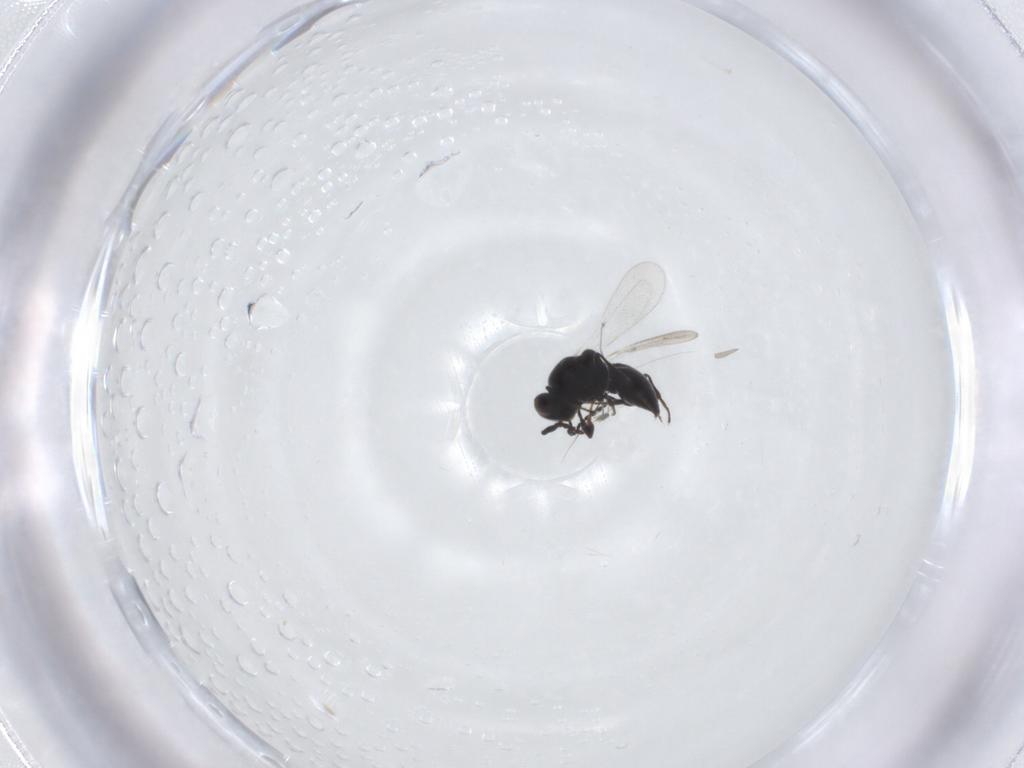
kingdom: Animalia
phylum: Arthropoda
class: Insecta
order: Hymenoptera
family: Platygastridae
